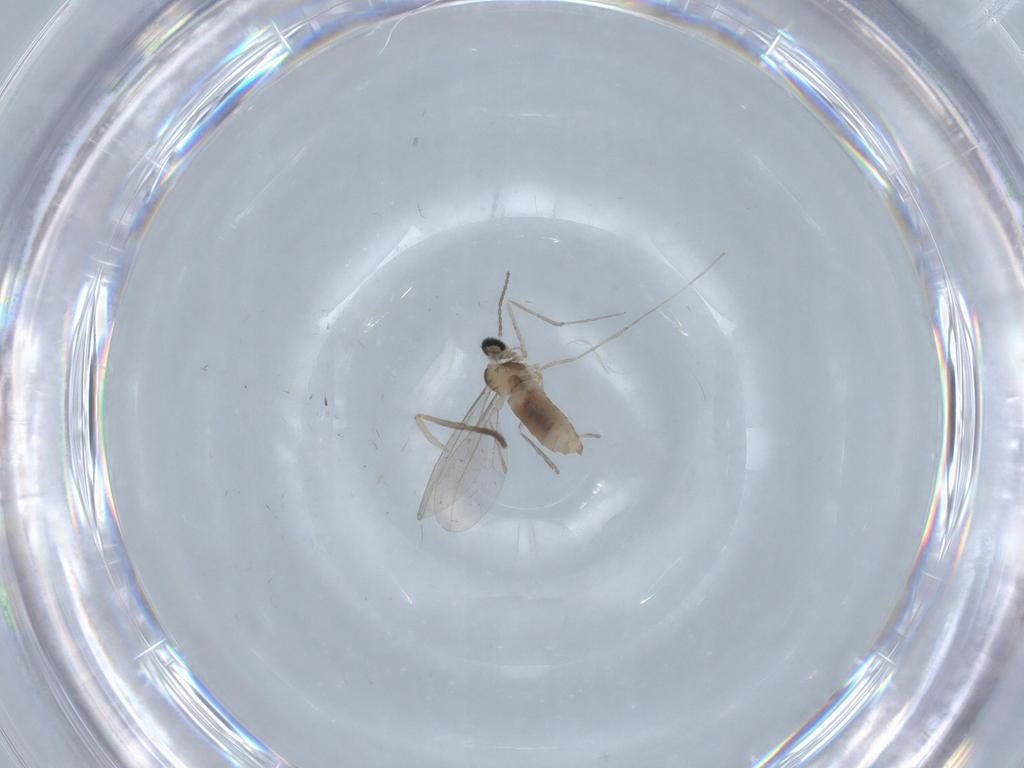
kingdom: Animalia
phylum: Arthropoda
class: Insecta
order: Diptera
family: Cecidomyiidae
